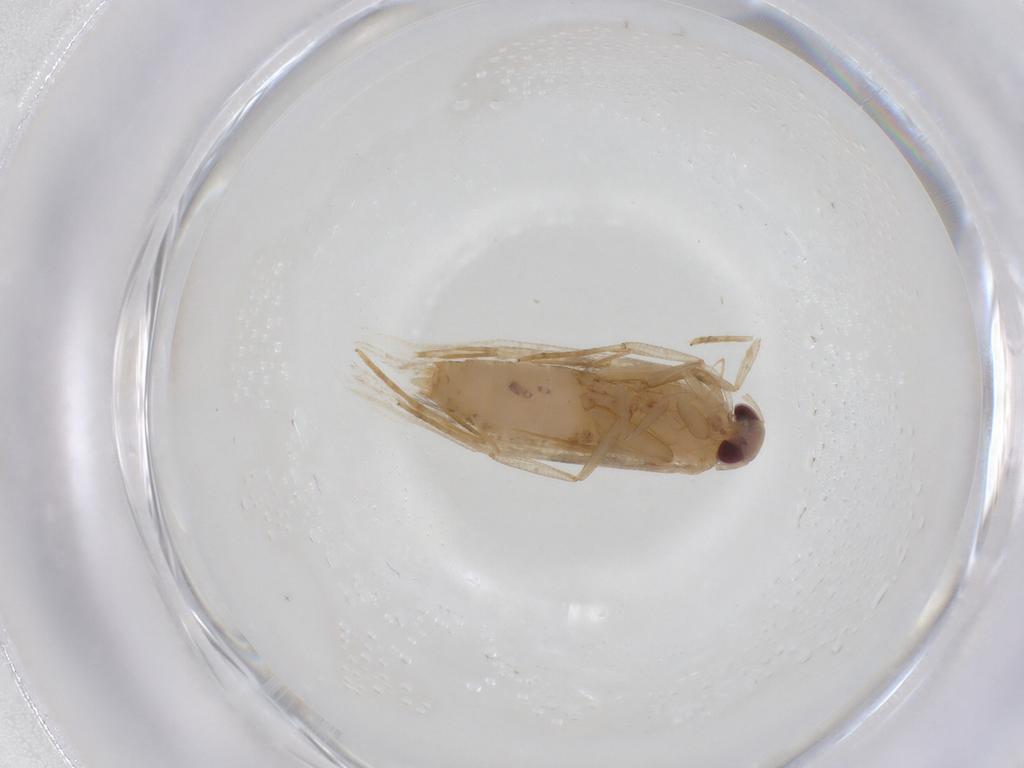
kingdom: Animalia
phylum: Arthropoda
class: Insecta
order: Lepidoptera
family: Momphidae
